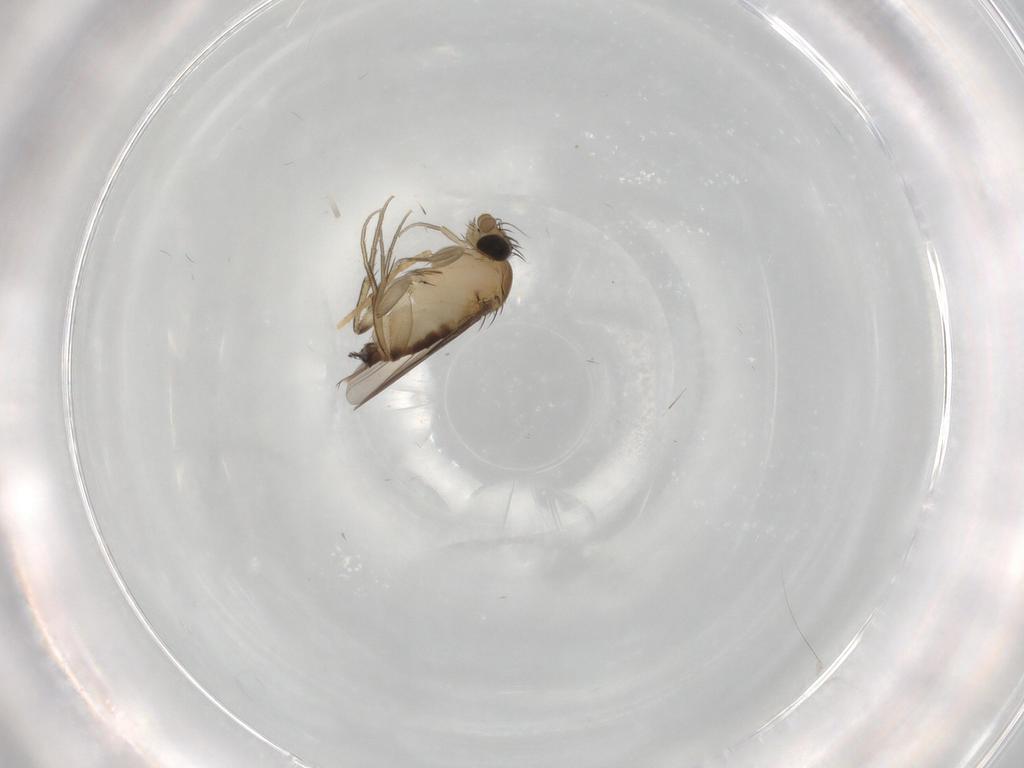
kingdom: Animalia
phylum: Arthropoda
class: Insecta
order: Diptera
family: Phoridae
